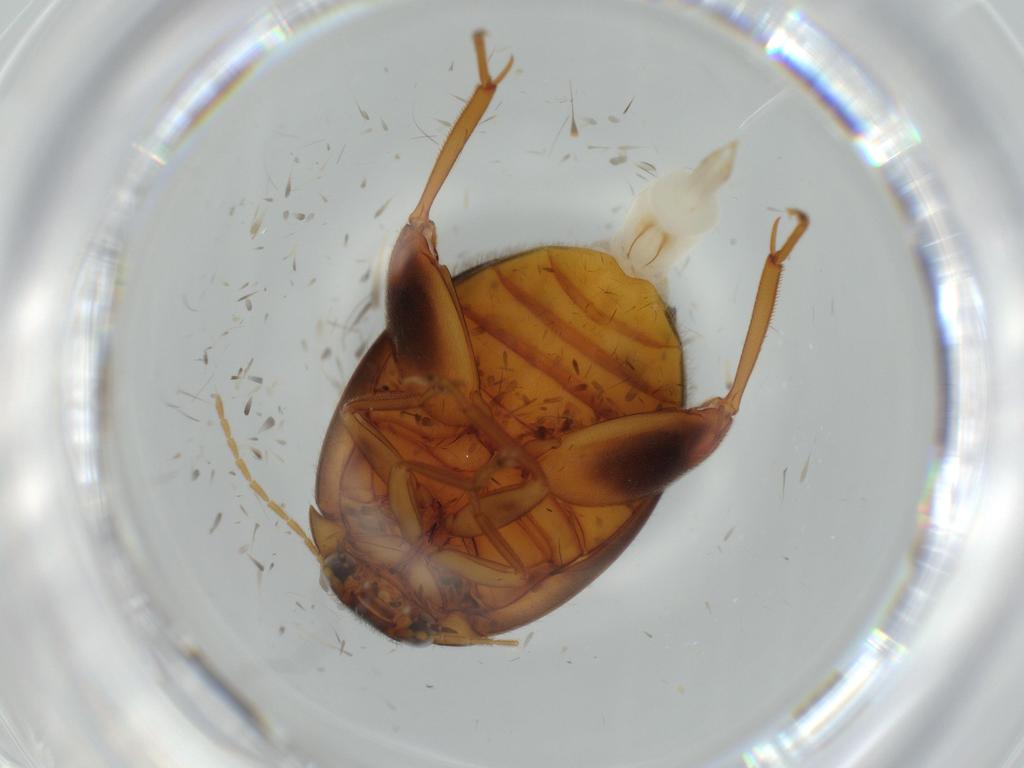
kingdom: Animalia
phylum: Arthropoda
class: Insecta
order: Coleoptera
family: Scirtidae
